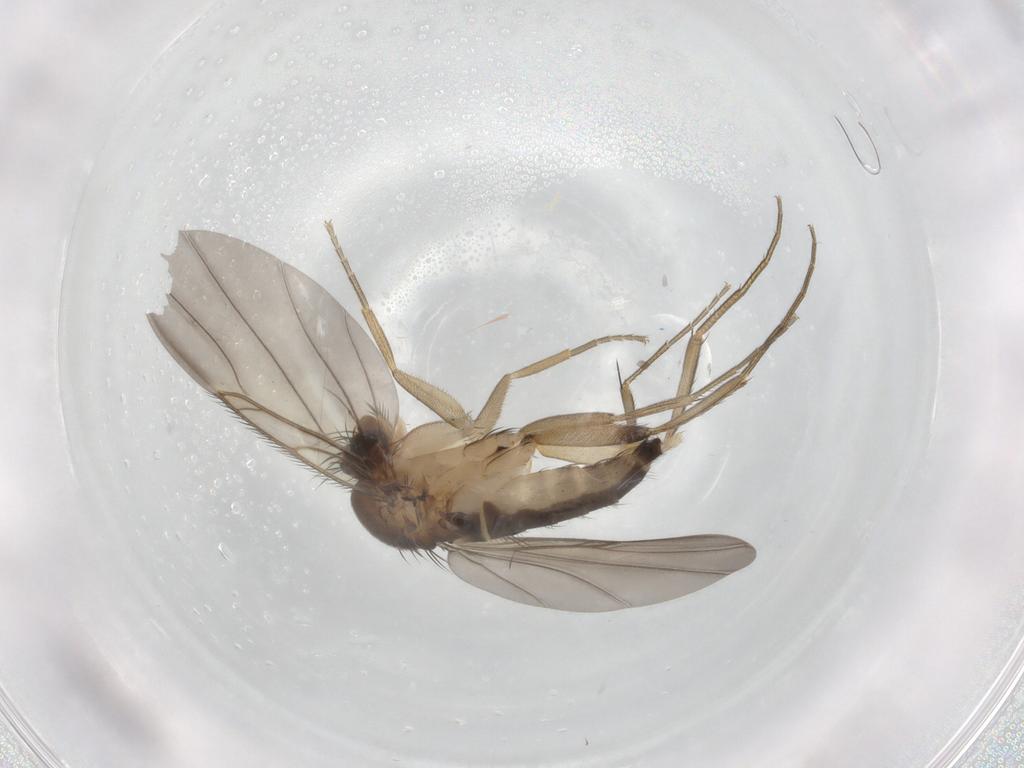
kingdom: Animalia
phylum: Arthropoda
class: Insecta
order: Diptera
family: Phoridae
